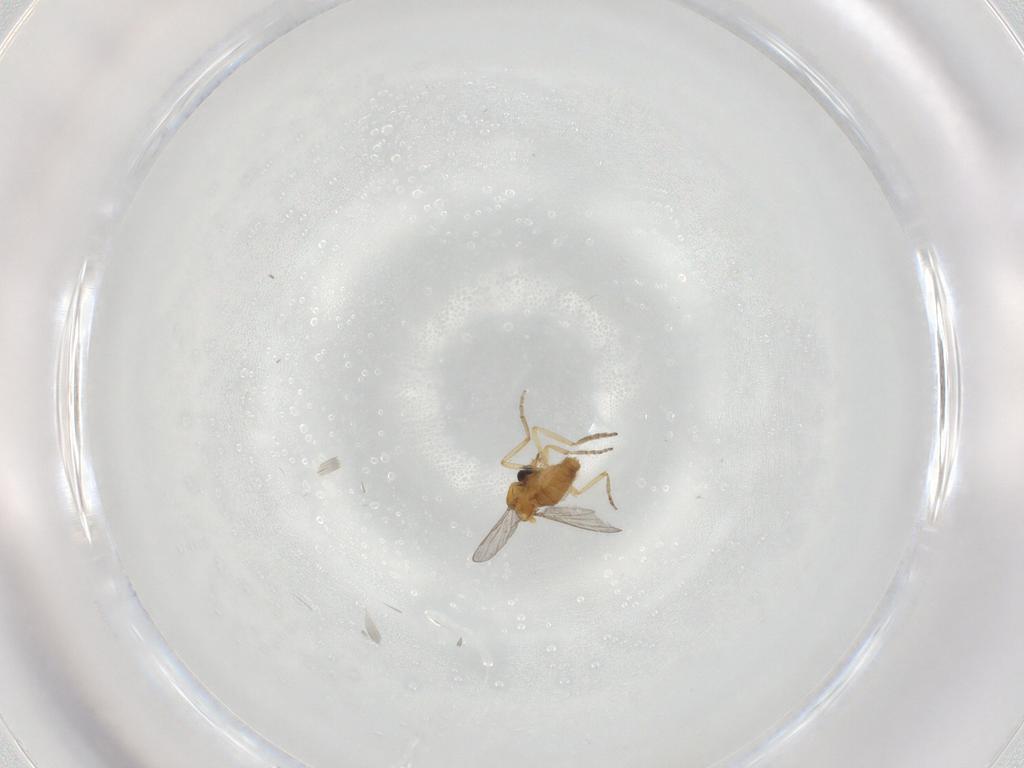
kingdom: Animalia
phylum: Arthropoda
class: Insecta
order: Diptera
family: Ceratopogonidae
